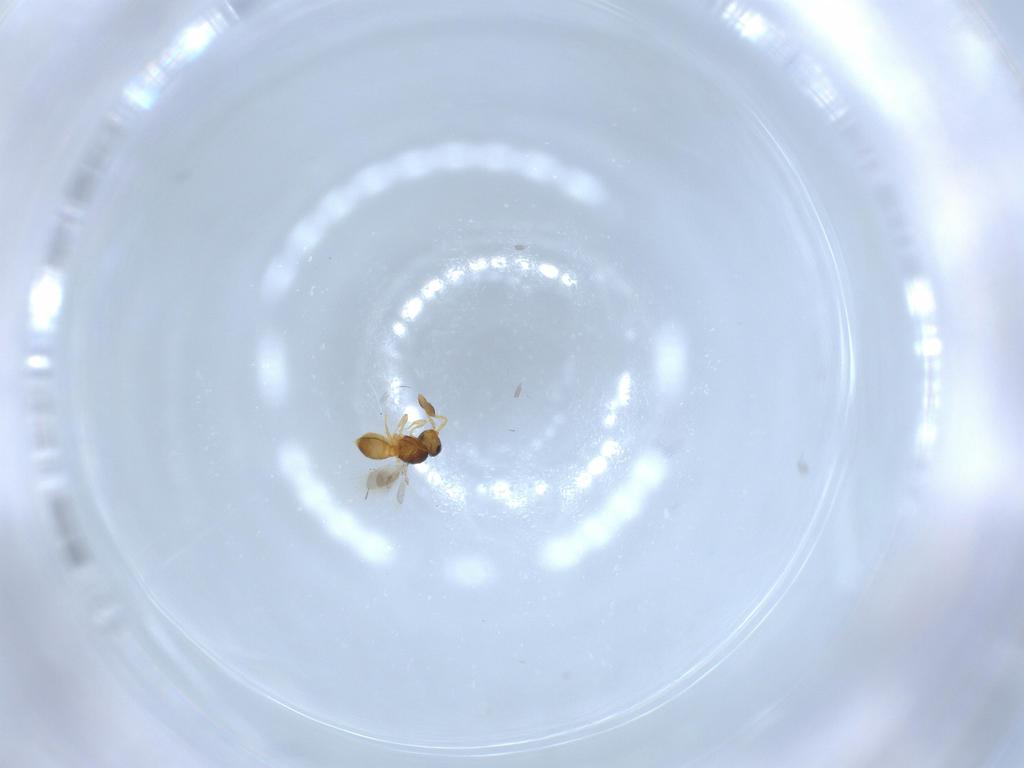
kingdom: Animalia
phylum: Arthropoda
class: Insecta
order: Hymenoptera
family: Scelionidae
